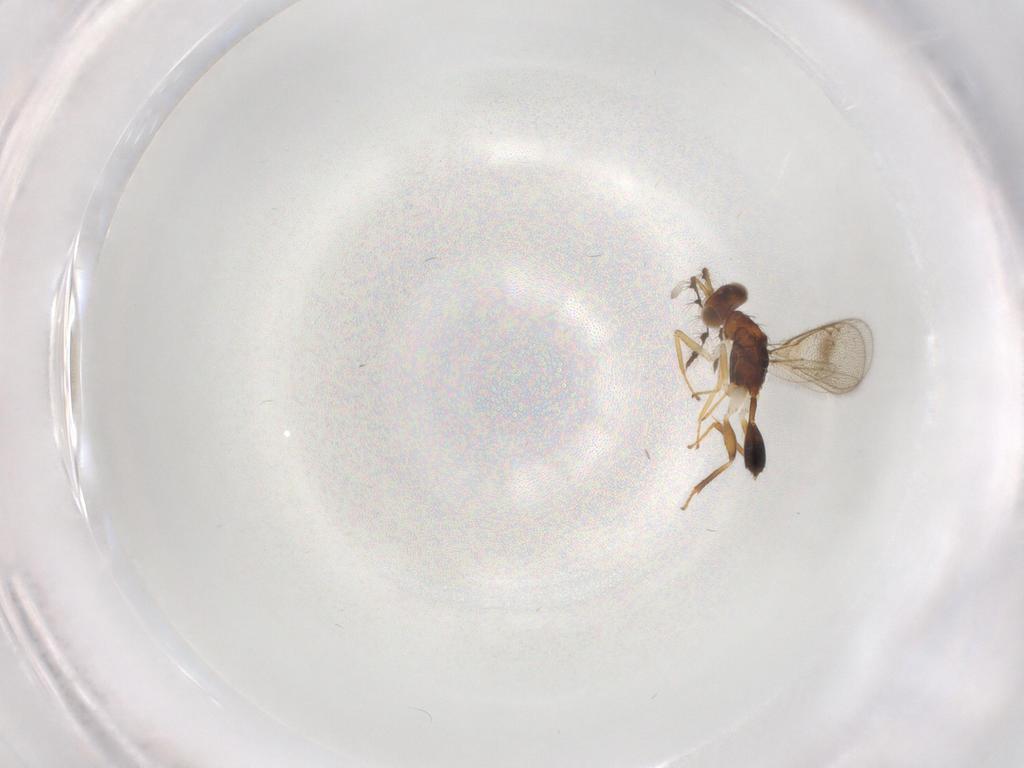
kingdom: Animalia
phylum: Arthropoda
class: Insecta
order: Hymenoptera
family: Eulophidae
